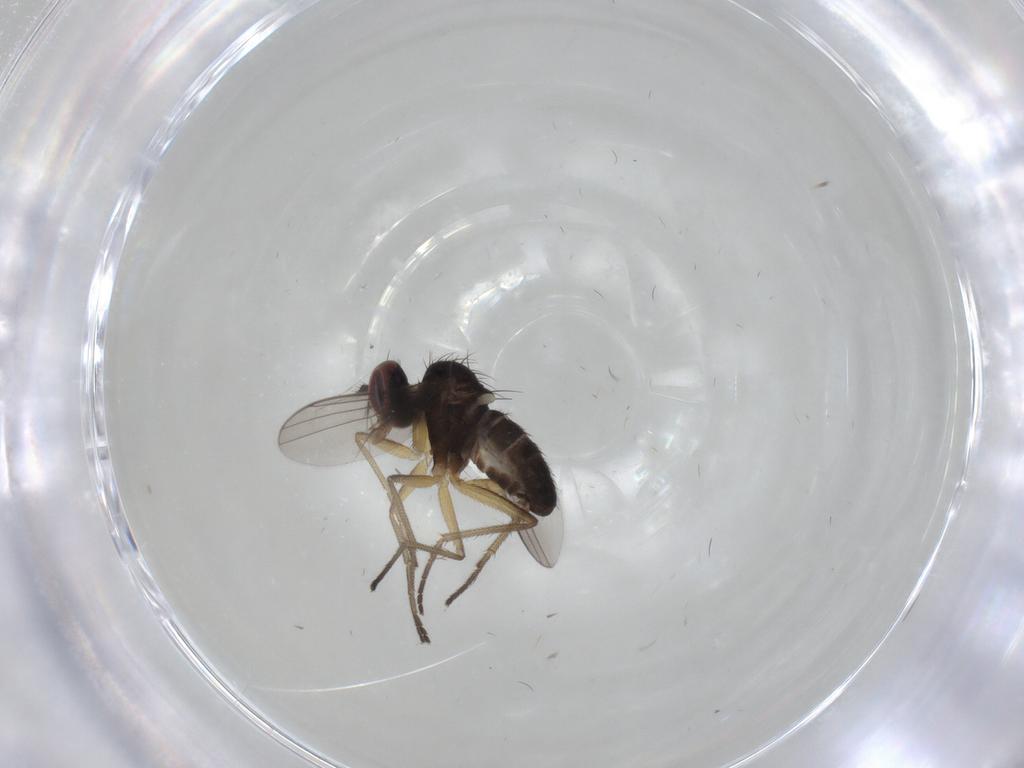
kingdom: Animalia
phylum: Arthropoda
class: Insecta
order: Diptera
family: Dolichopodidae
